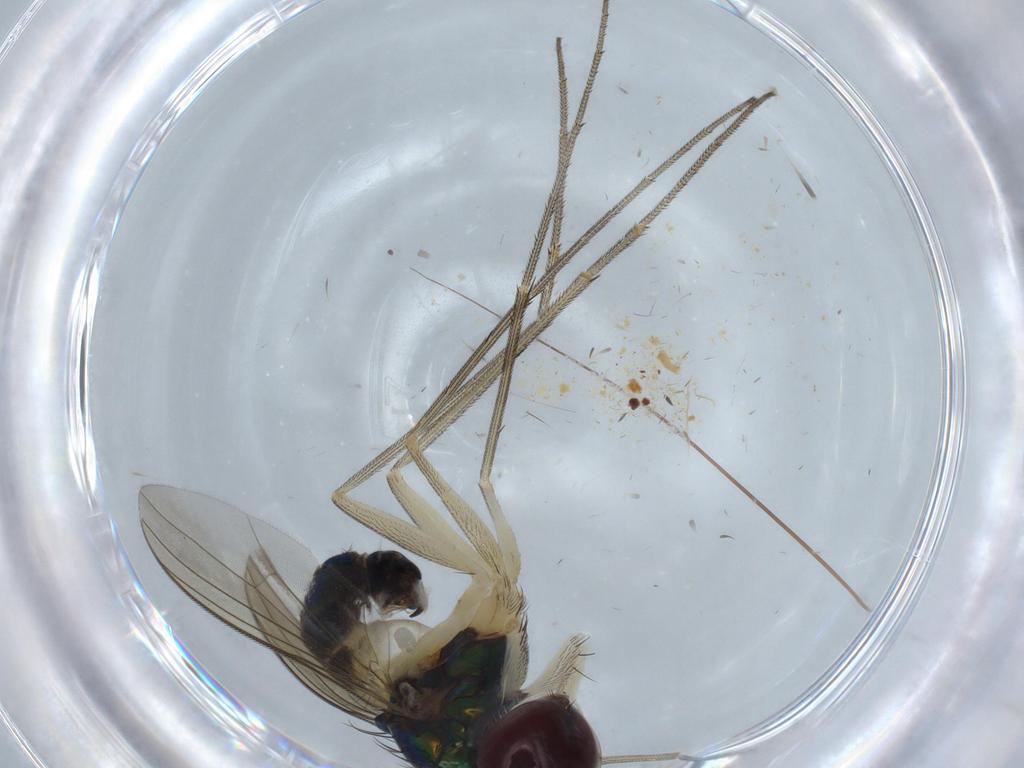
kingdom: Animalia
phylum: Arthropoda
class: Insecta
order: Diptera
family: Dolichopodidae
